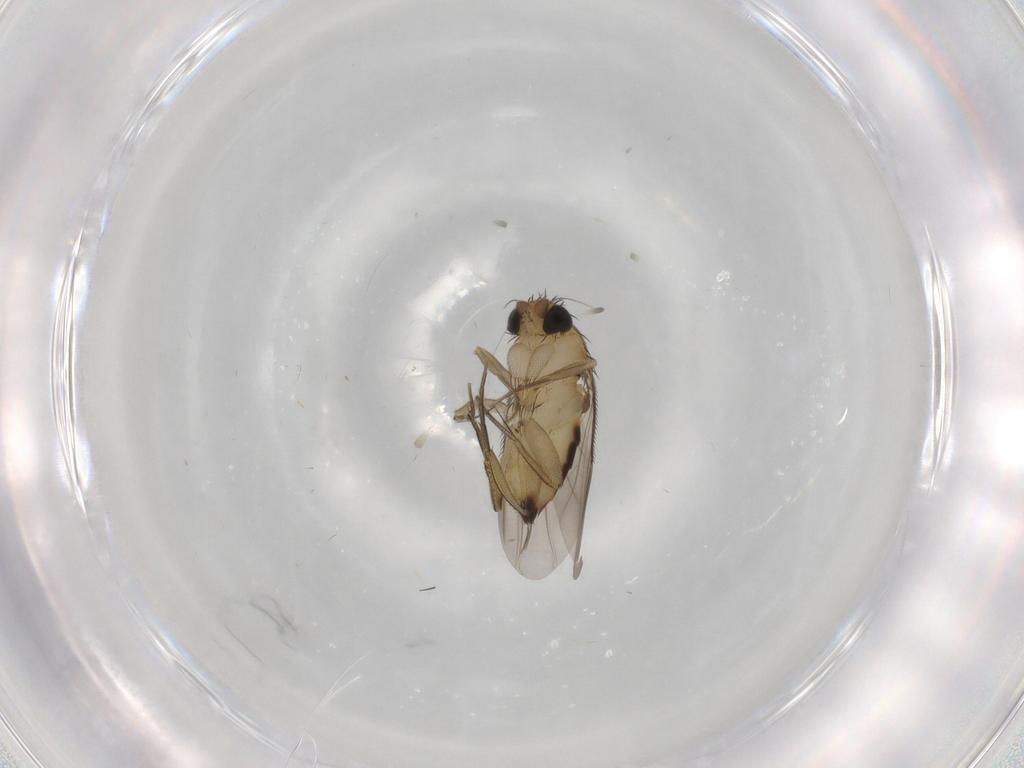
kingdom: Animalia
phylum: Arthropoda
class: Insecta
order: Diptera
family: Phoridae
